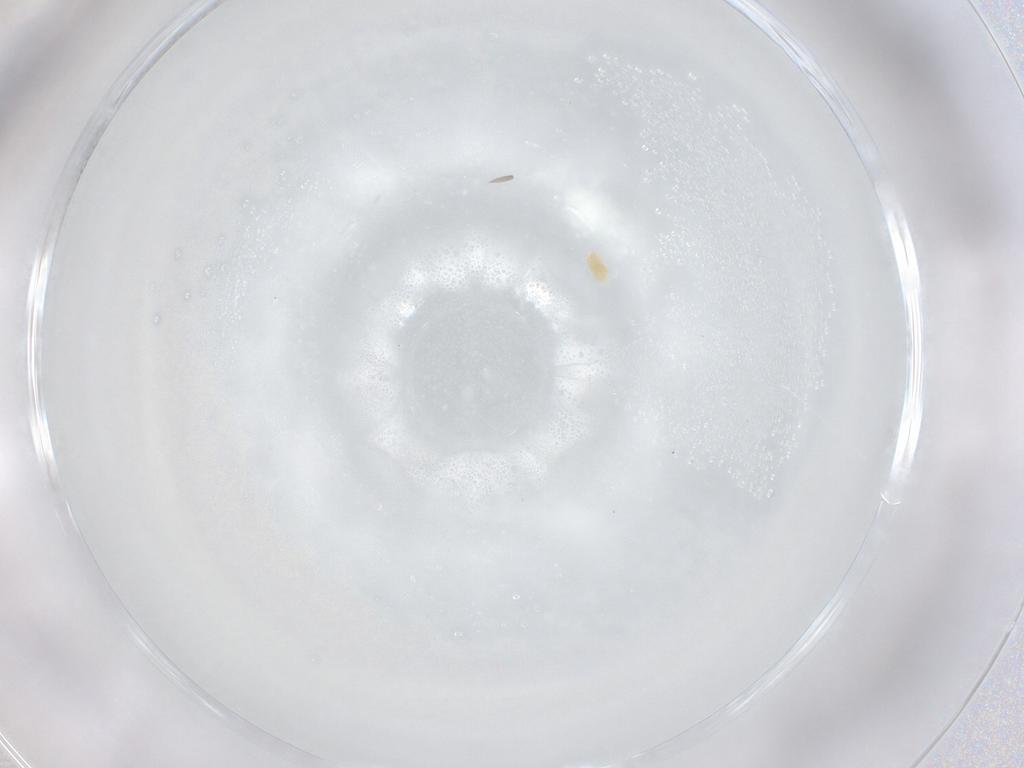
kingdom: Animalia
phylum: Arthropoda
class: Arachnida
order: Trombidiformes
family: Eupodidae
